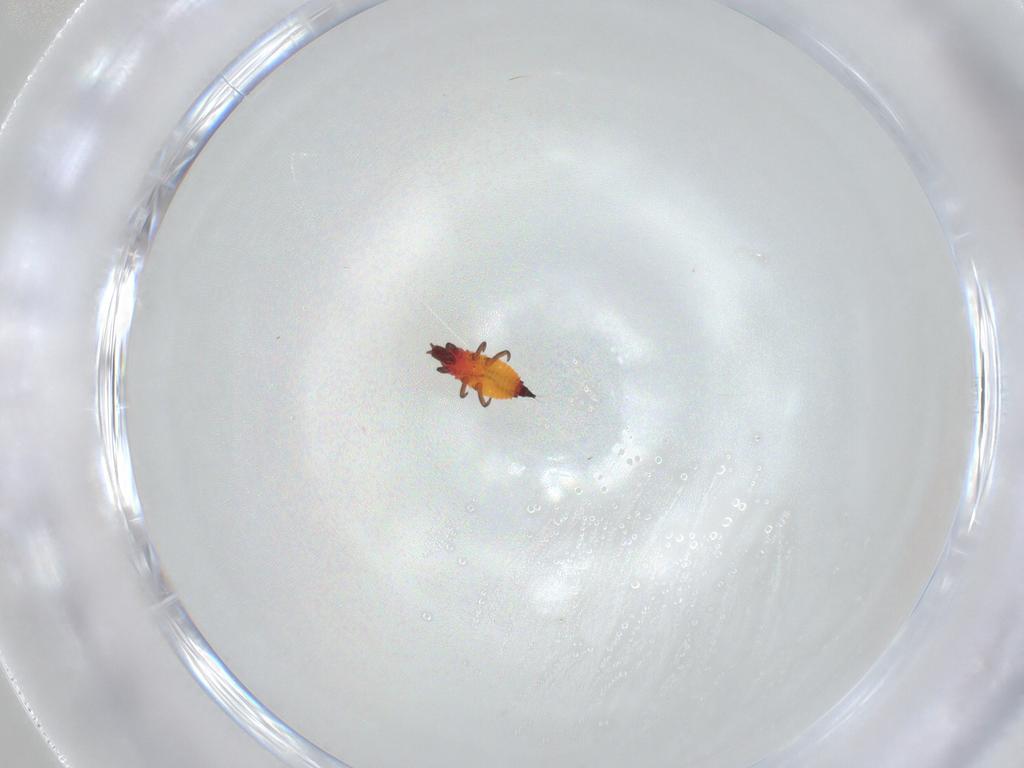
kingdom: Animalia
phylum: Arthropoda
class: Insecta
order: Thysanoptera
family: Phlaeothripidae
